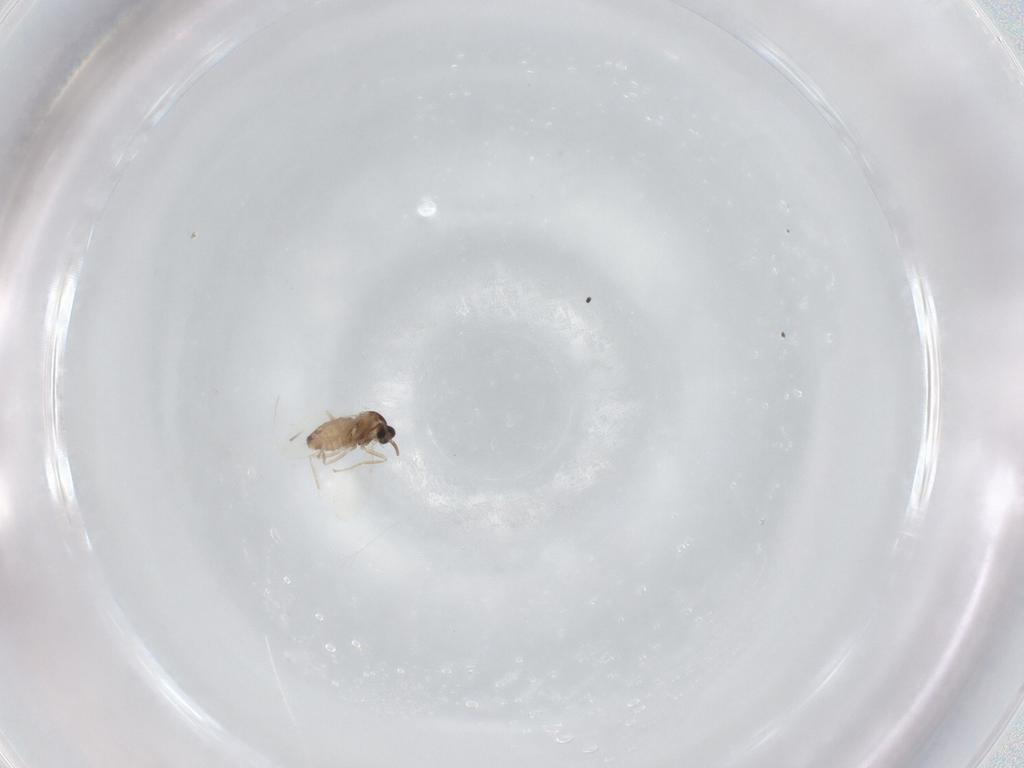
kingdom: Animalia
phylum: Arthropoda
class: Insecta
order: Diptera
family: Cecidomyiidae
